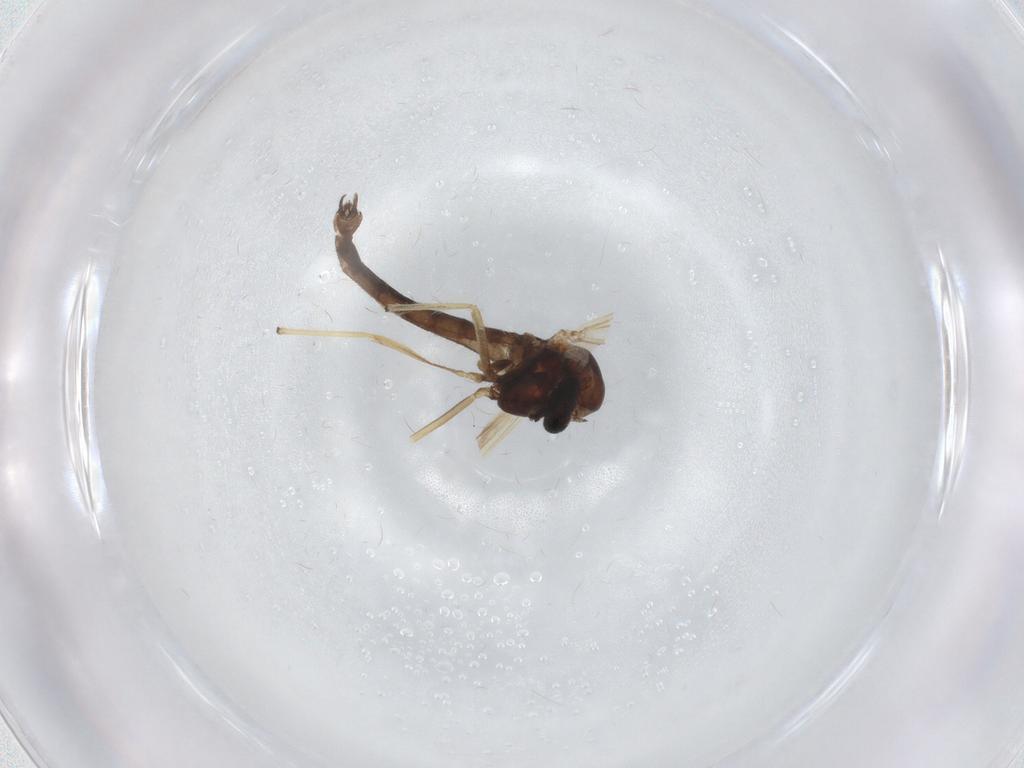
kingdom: Animalia
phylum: Arthropoda
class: Insecta
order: Diptera
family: Chironomidae
